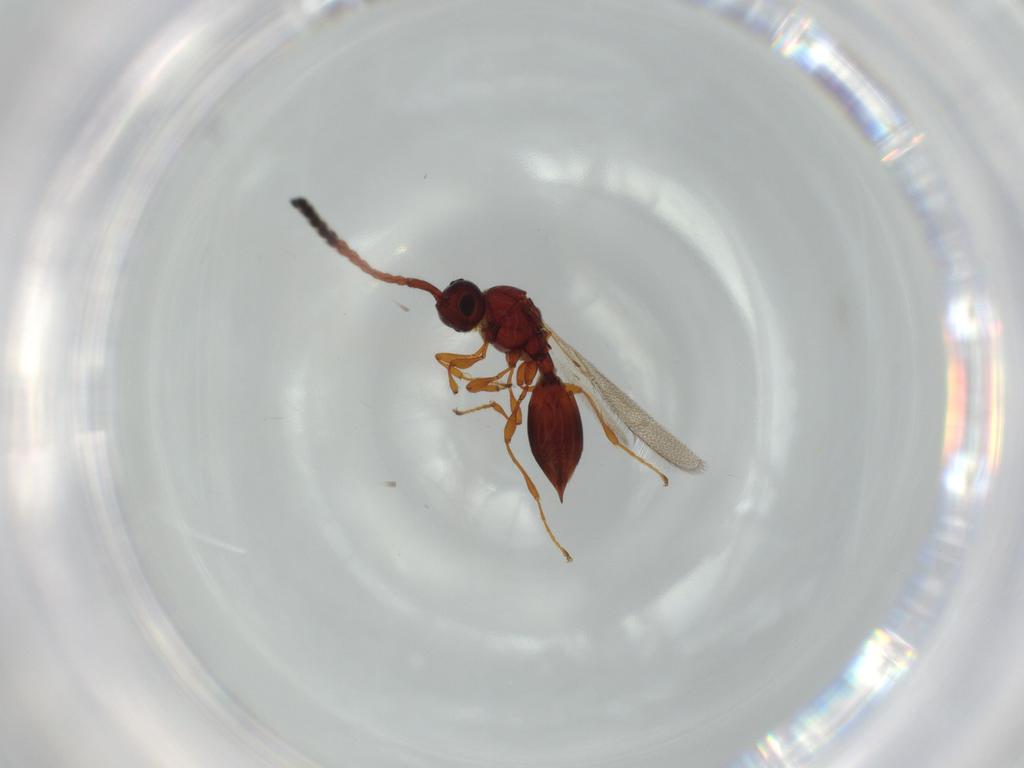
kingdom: Animalia
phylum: Arthropoda
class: Insecta
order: Hymenoptera
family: Diapriidae
